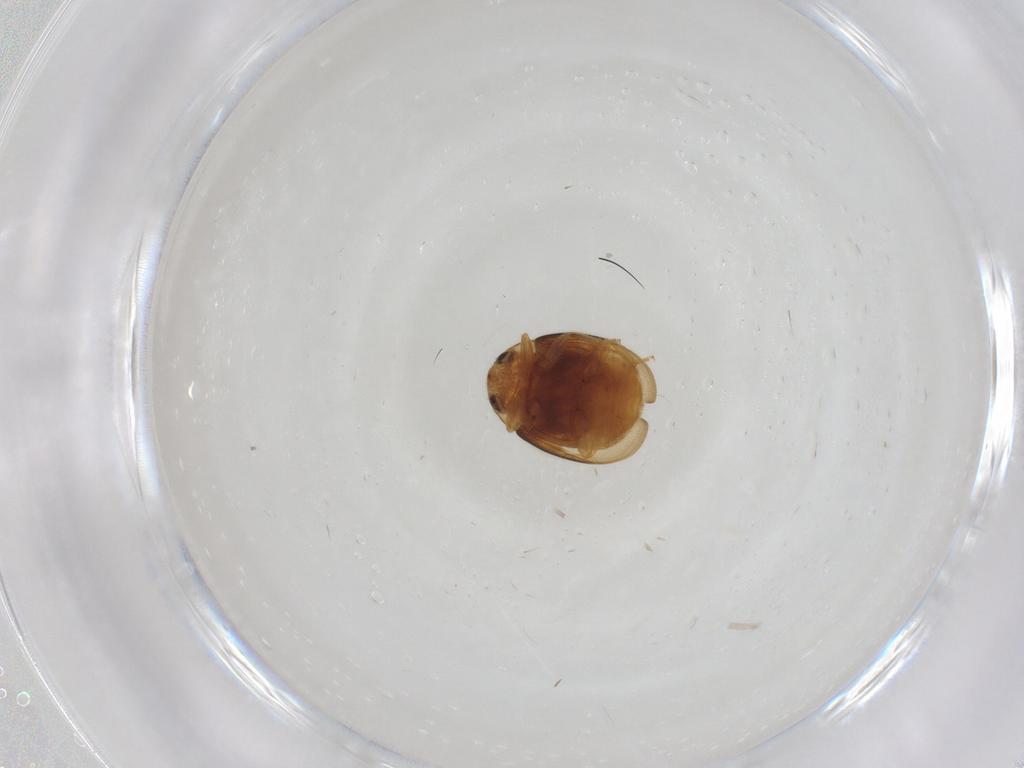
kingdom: Animalia
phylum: Arthropoda
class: Insecta
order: Coleoptera
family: Coccinellidae
